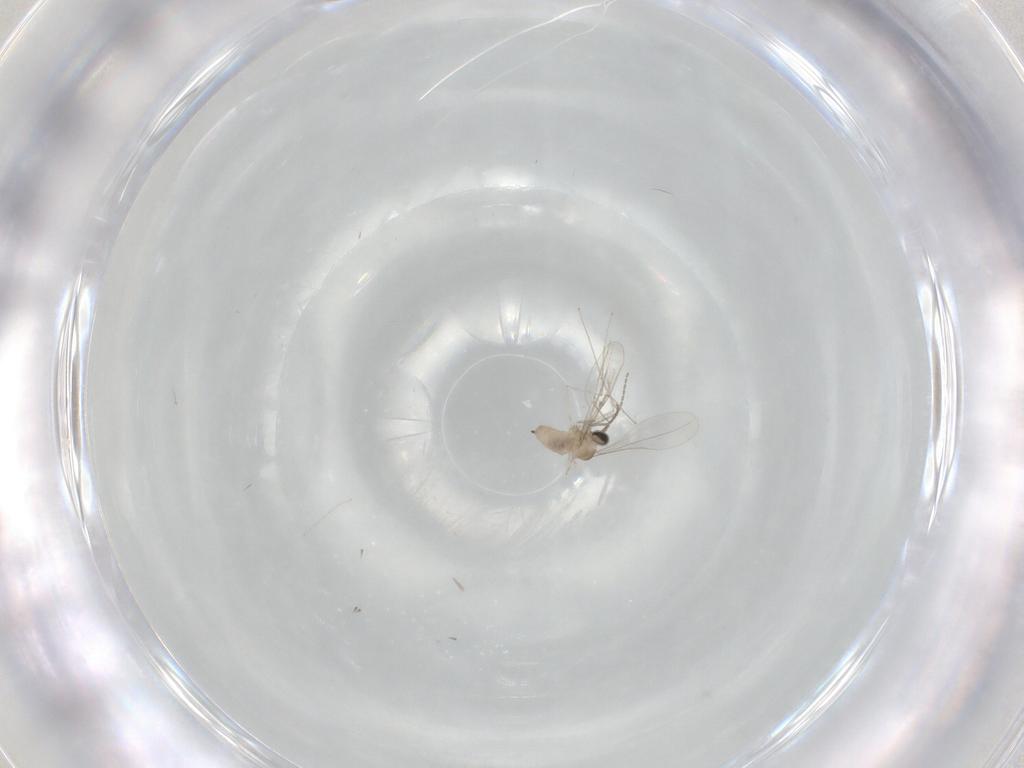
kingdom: Animalia
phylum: Arthropoda
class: Insecta
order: Diptera
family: Cecidomyiidae
